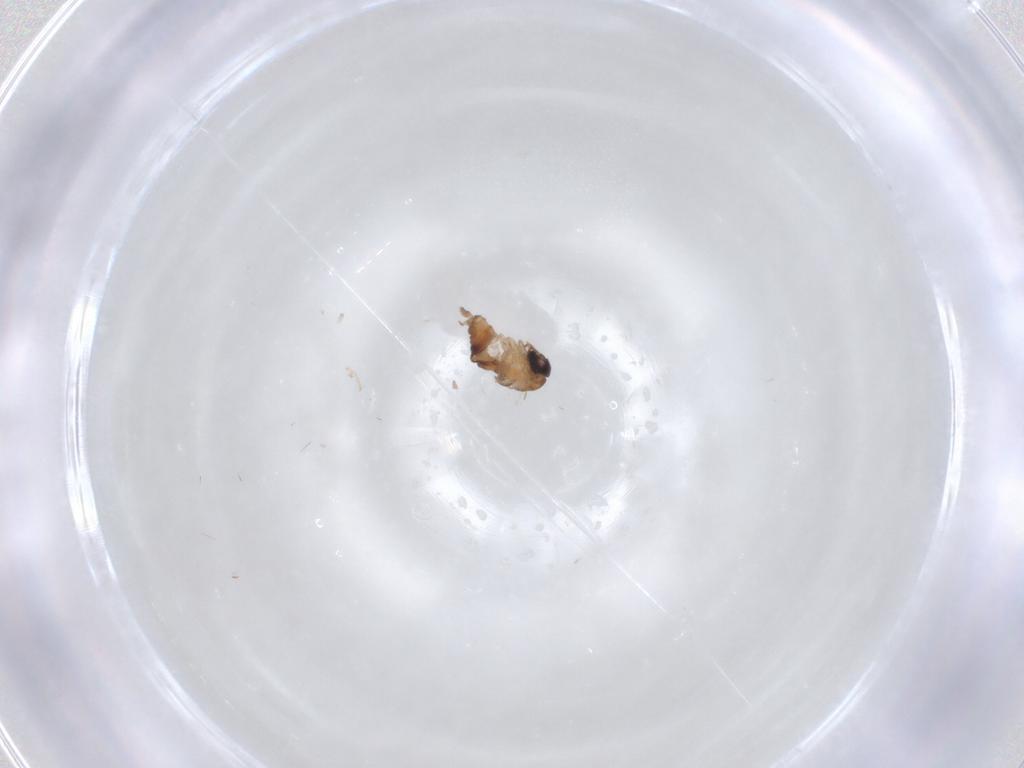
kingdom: Animalia
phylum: Arthropoda
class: Insecta
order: Diptera
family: Psychodidae
